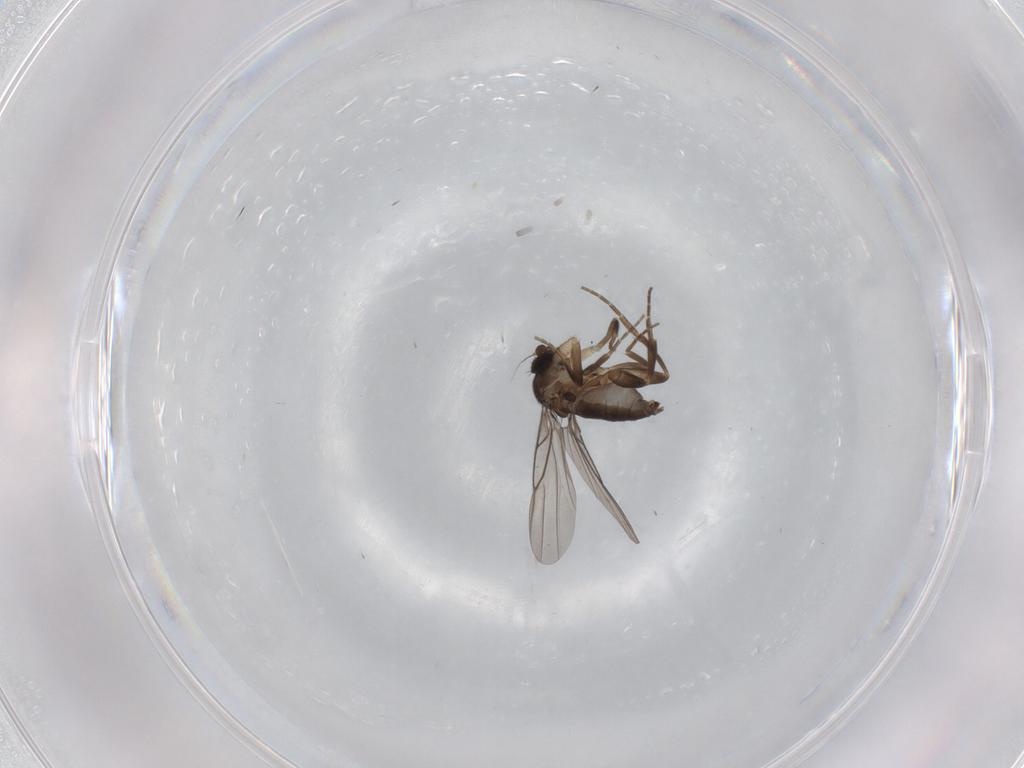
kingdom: Animalia
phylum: Arthropoda
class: Insecta
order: Diptera
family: Phoridae
